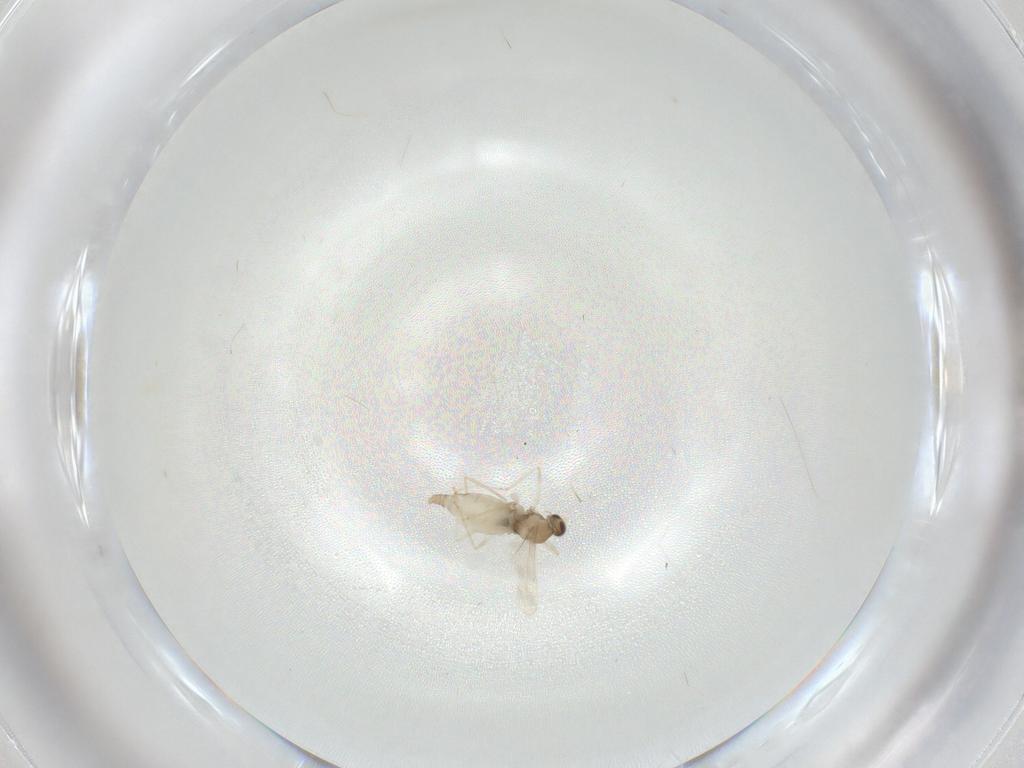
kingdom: Animalia
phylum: Arthropoda
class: Insecta
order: Diptera
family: Cecidomyiidae
